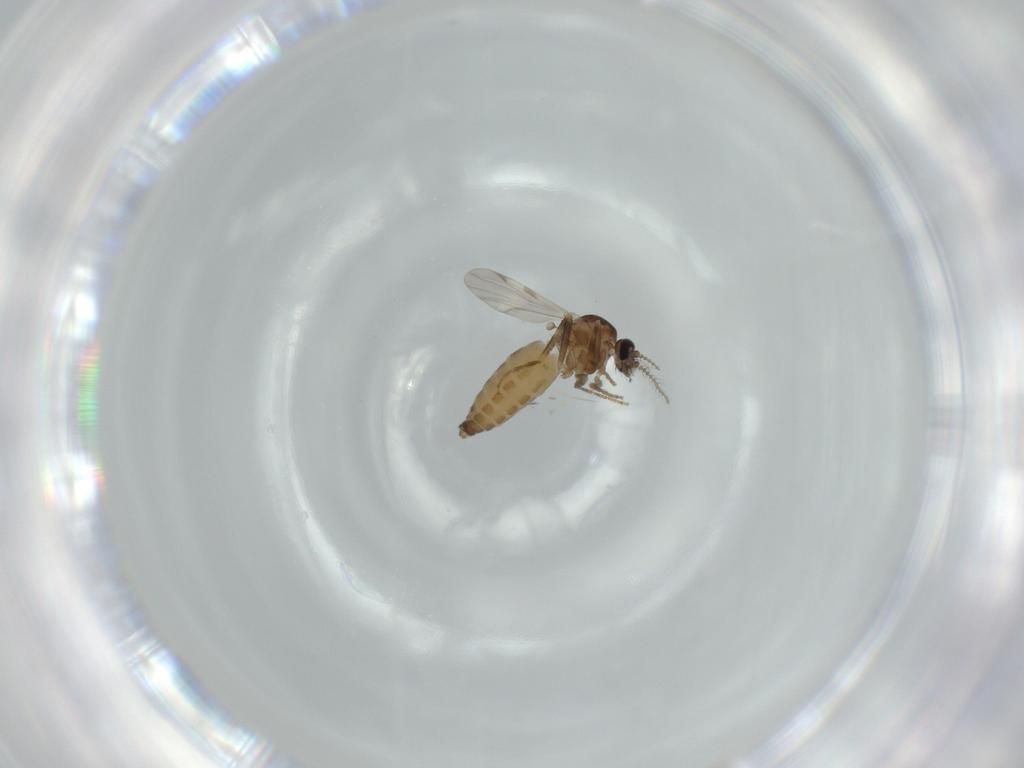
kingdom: Animalia
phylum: Arthropoda
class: Insecta
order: Diptera
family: Ceratopogonidae
